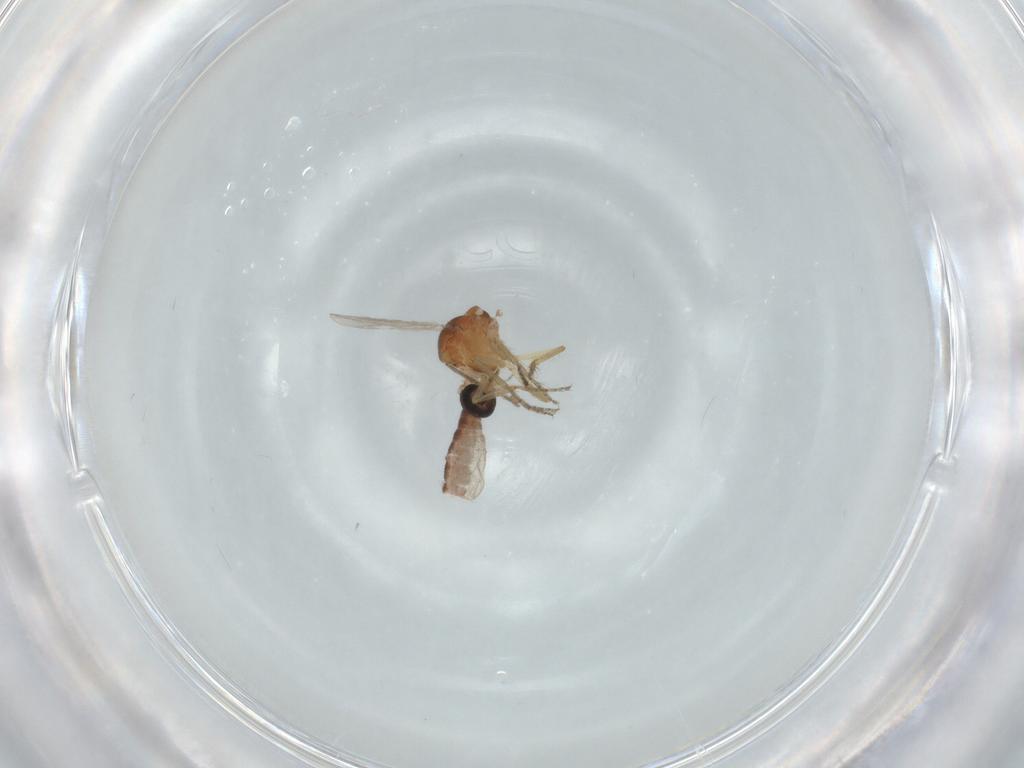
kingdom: Animalia
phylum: Arthropoda
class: Insecta
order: Diptera
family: Ceratopogonidae
